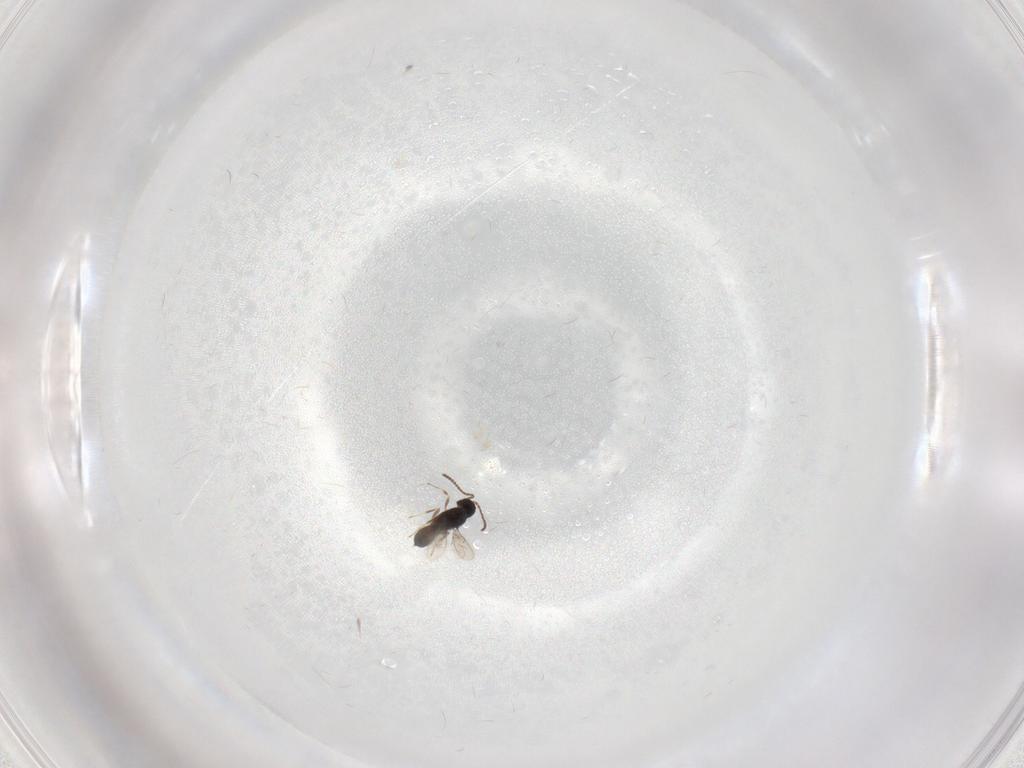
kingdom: Animalia
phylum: Arthropoda
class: Insecta
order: Hymenoptera
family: Scelionidae
